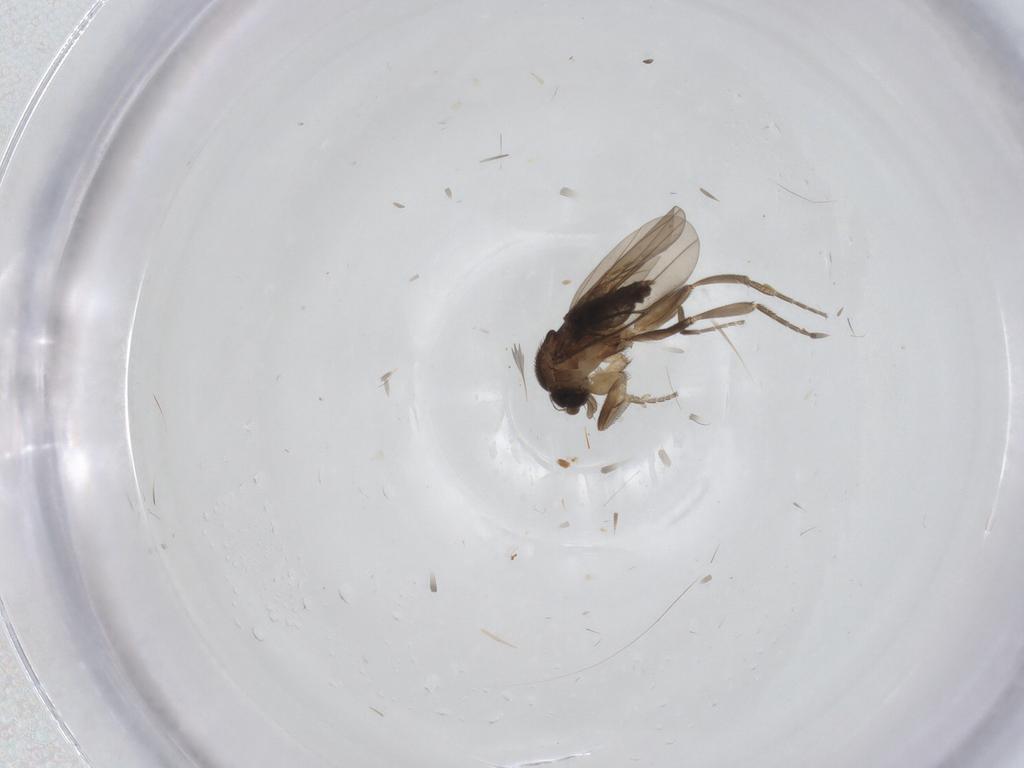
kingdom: Animalia
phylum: Arthropoda
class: Insecta
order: Diptera
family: Phoridae
